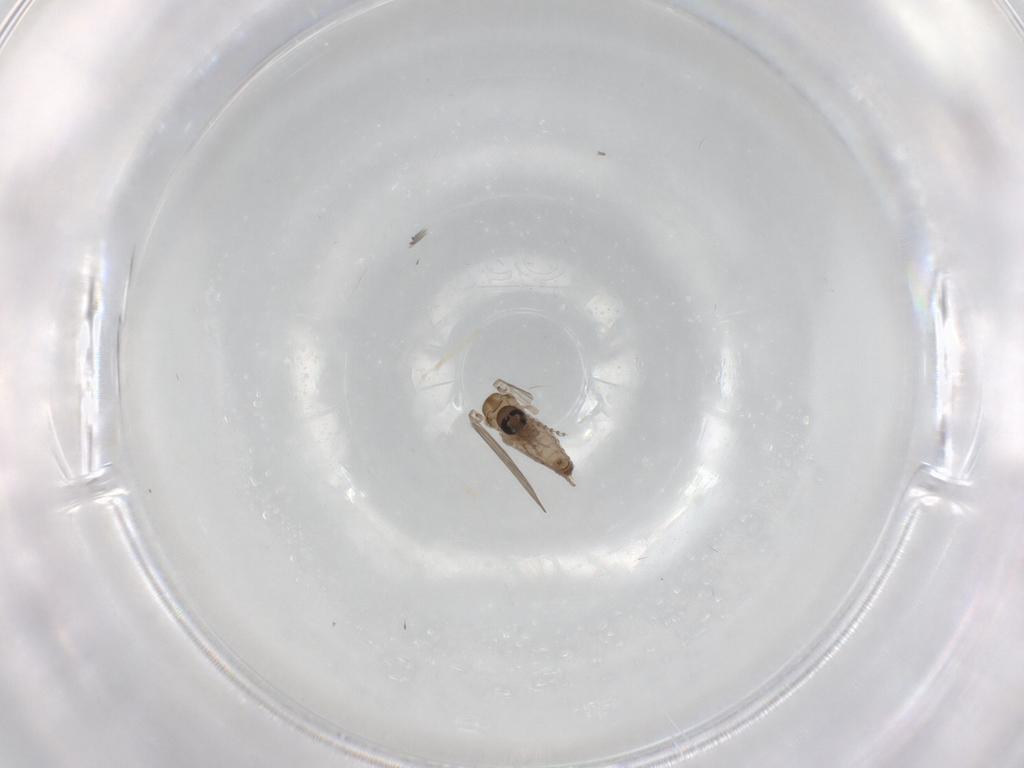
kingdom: Animalia
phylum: Arthropoda
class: Insecta
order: Diptera
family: Psychodidae
